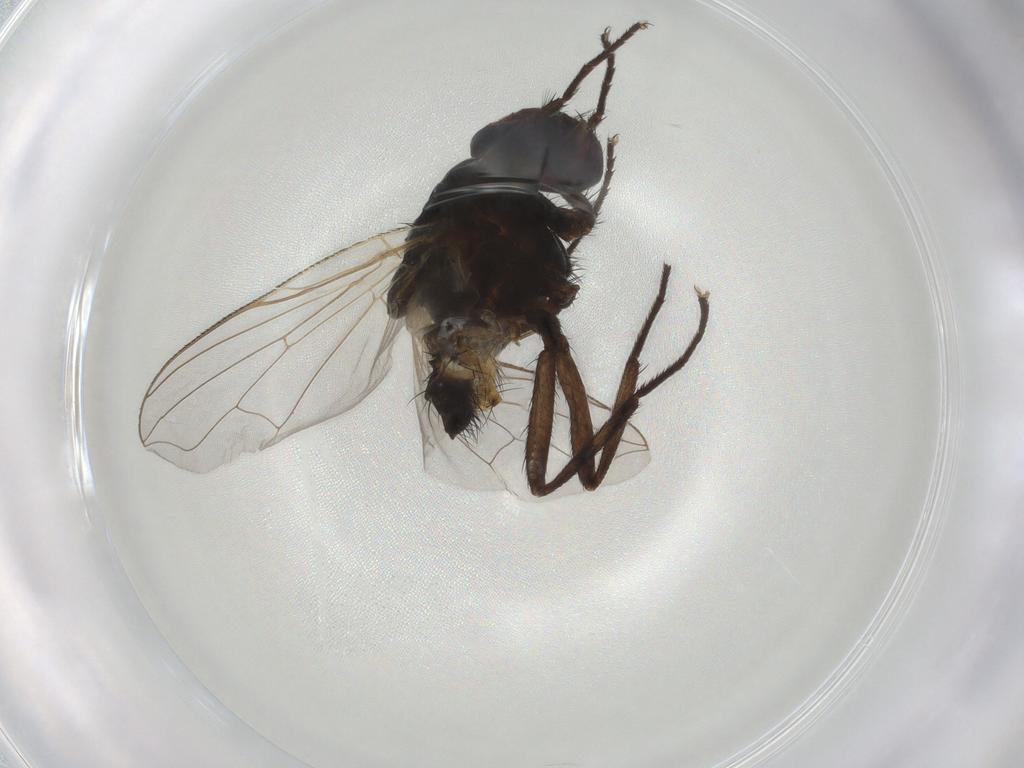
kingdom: Animalia
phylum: Arthropoda
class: Insecta
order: Diptera
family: Muscidae
